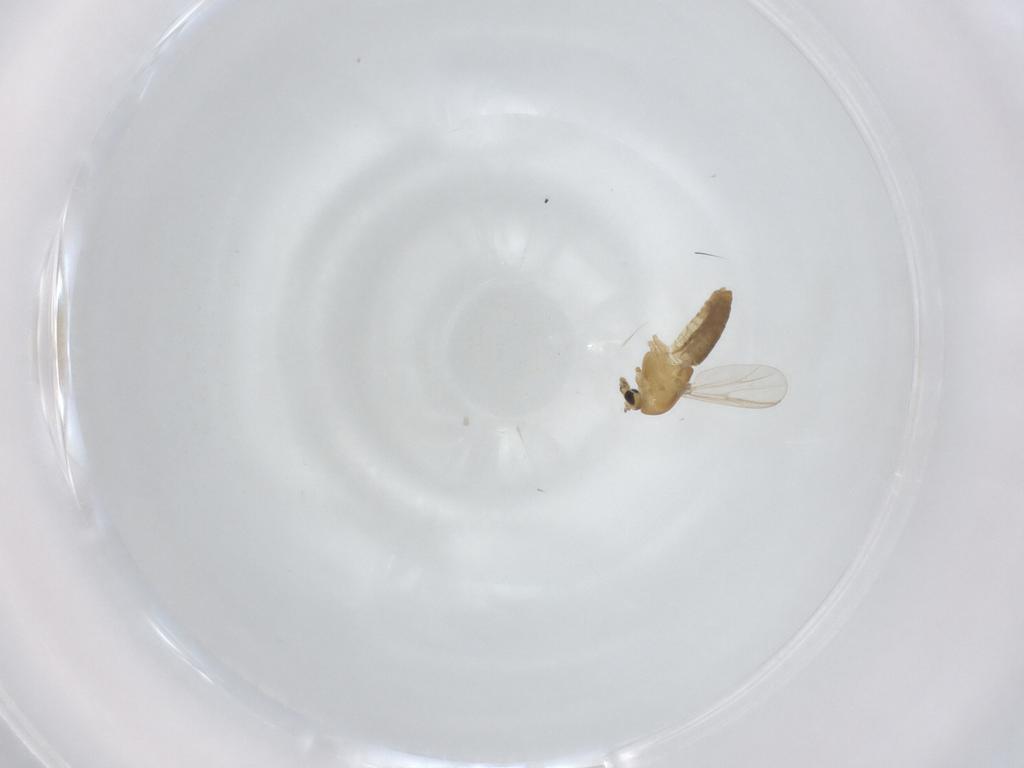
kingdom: Animalia
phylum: Arthropoda
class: Insecta
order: Diptera
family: Chironomidae
